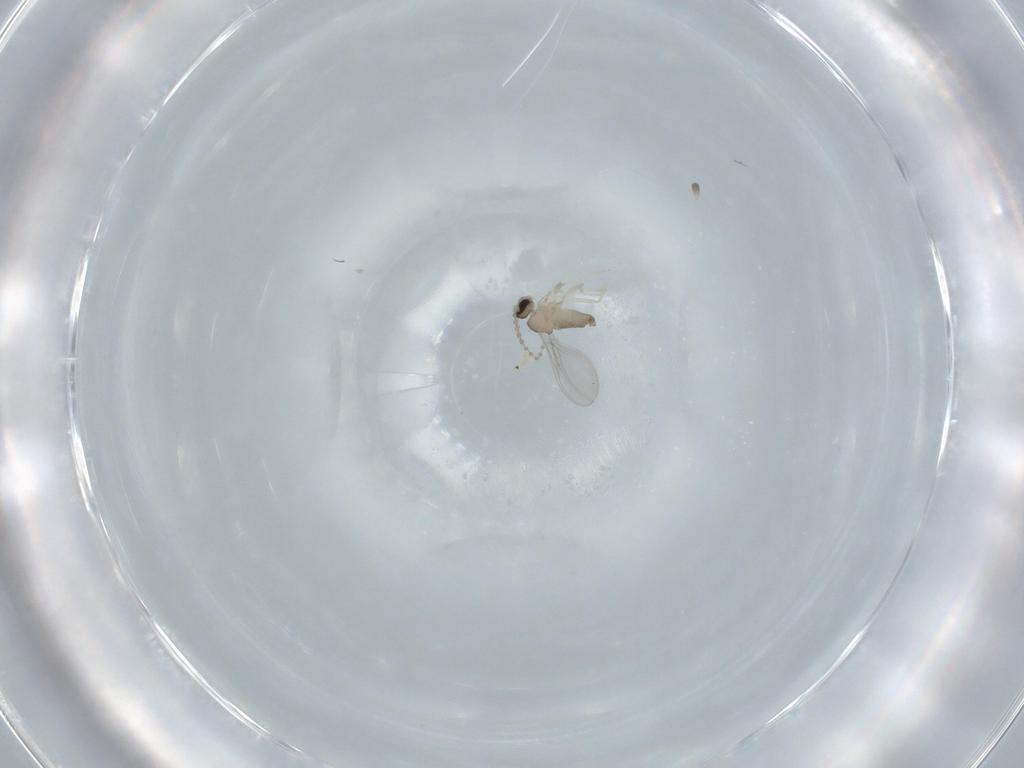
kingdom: Animalia
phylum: Arthropoda
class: Insecta
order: Diptera
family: Cecidomyiidae
